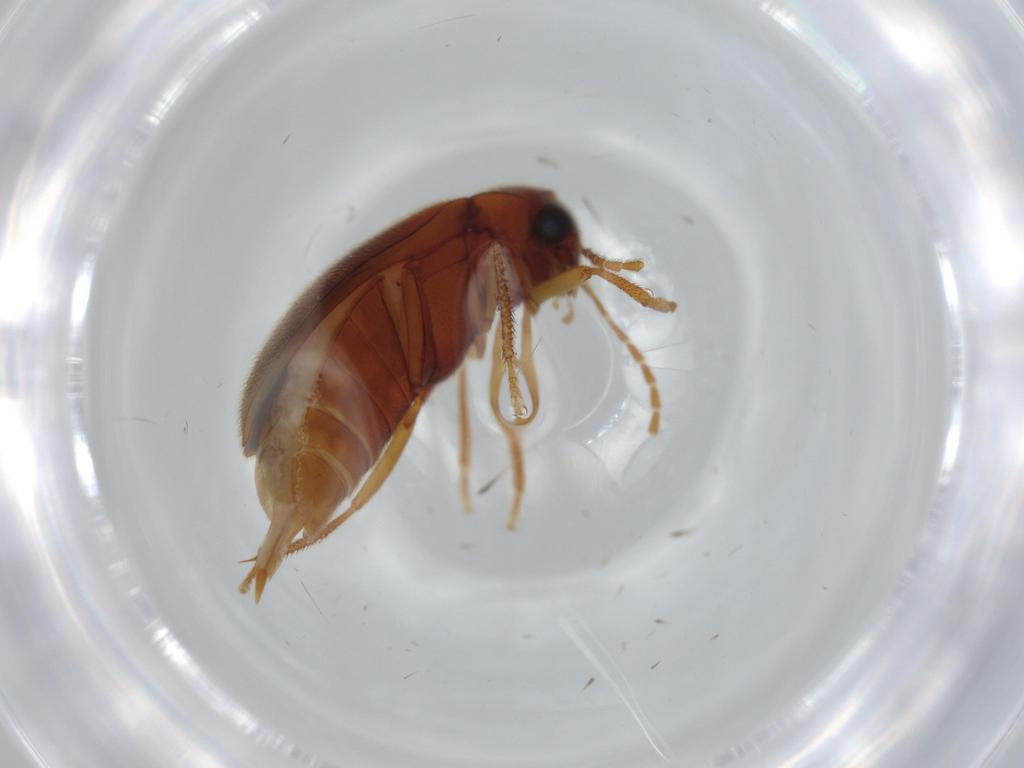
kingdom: Animalia
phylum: Arthropoda
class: Insecta
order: Coleoptera
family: Ptilodactylidae
